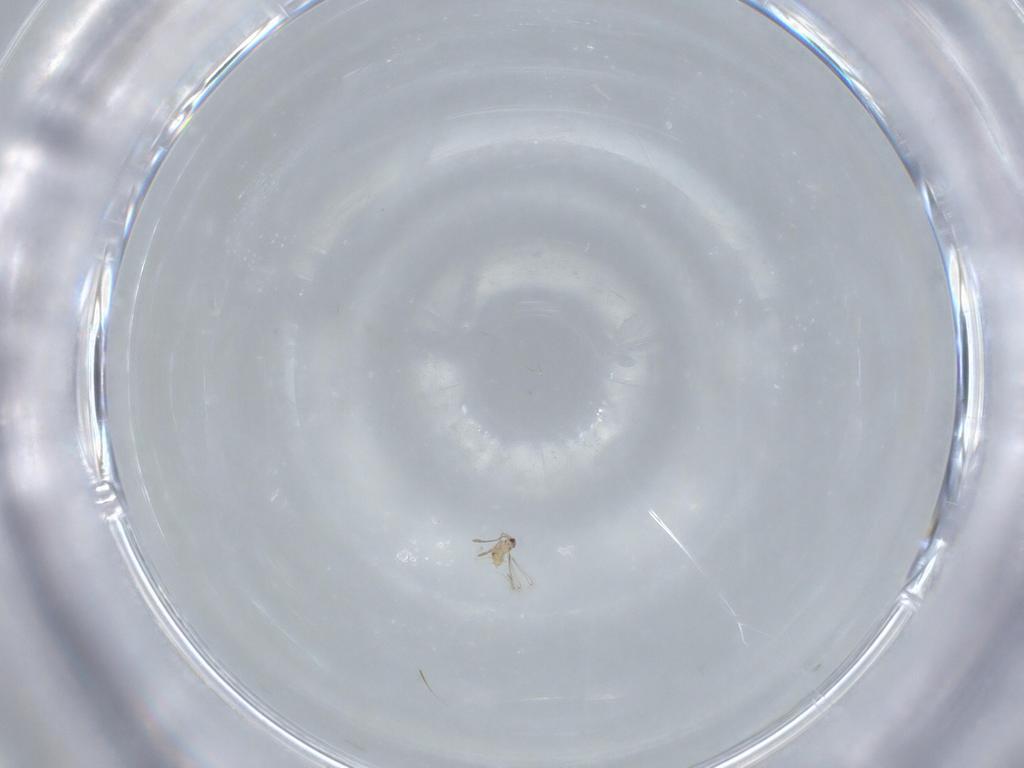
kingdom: Animalia
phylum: Arthropoda
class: Insecta
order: Hymenoptera
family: Mymaridae
